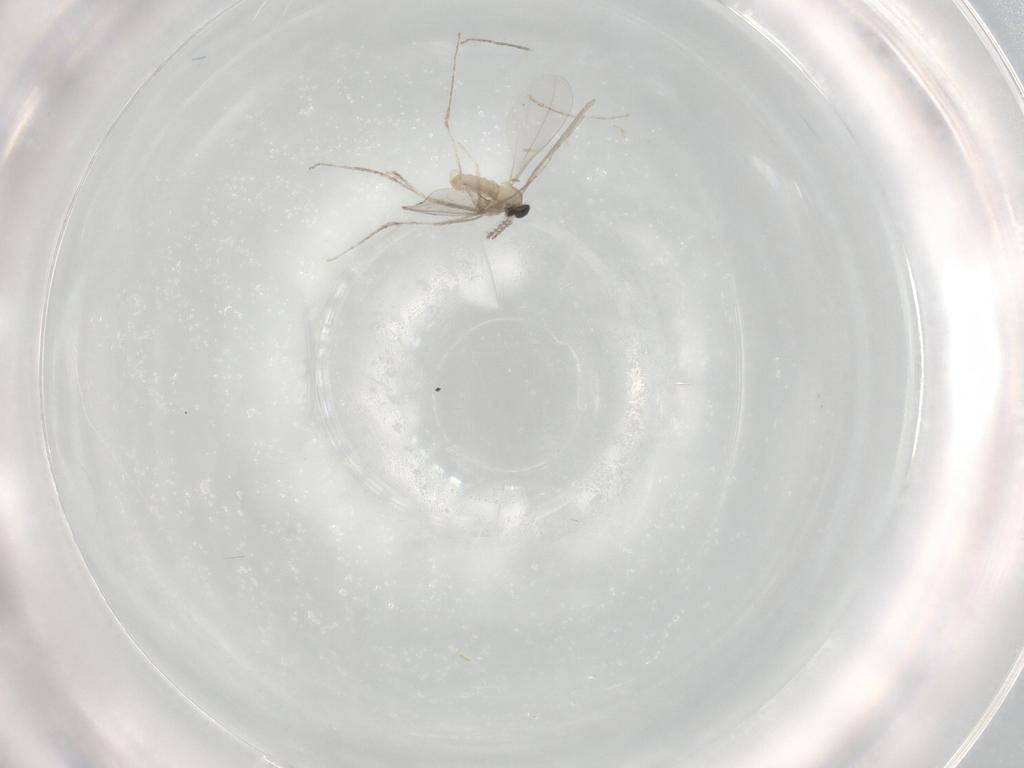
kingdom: Animalia
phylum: Arthropoda
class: Insecta
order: Diptera
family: Cecidomyiidae
